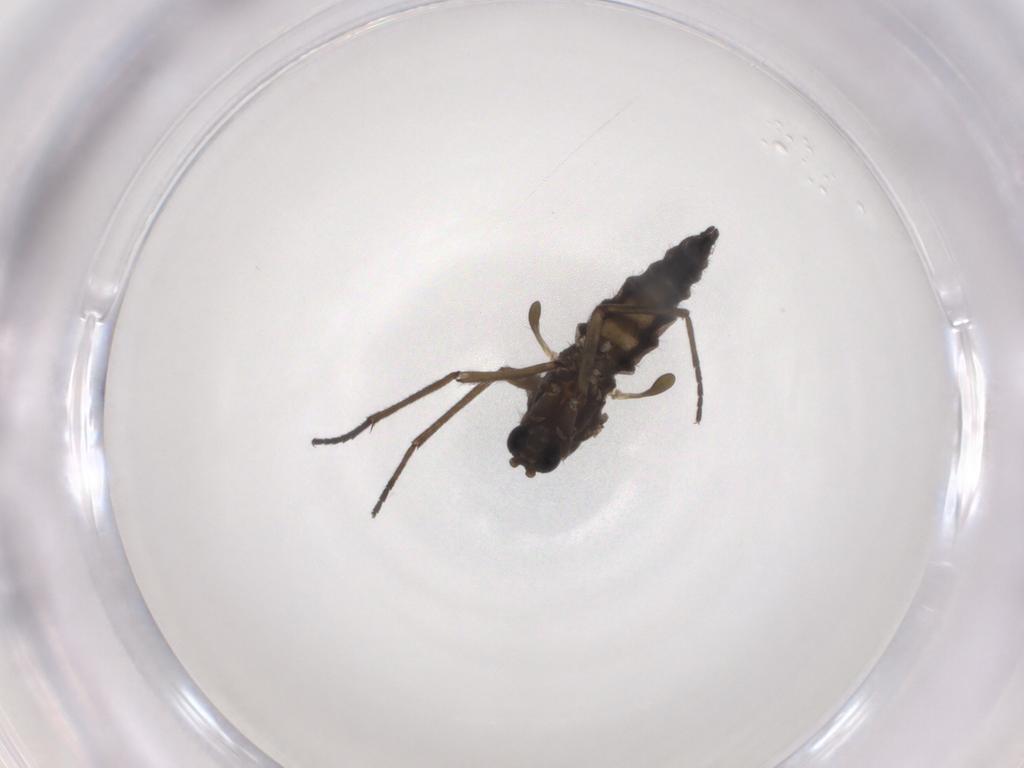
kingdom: Animalia
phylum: Arthropoda
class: Insecta
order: Diptera
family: Sciaridae
